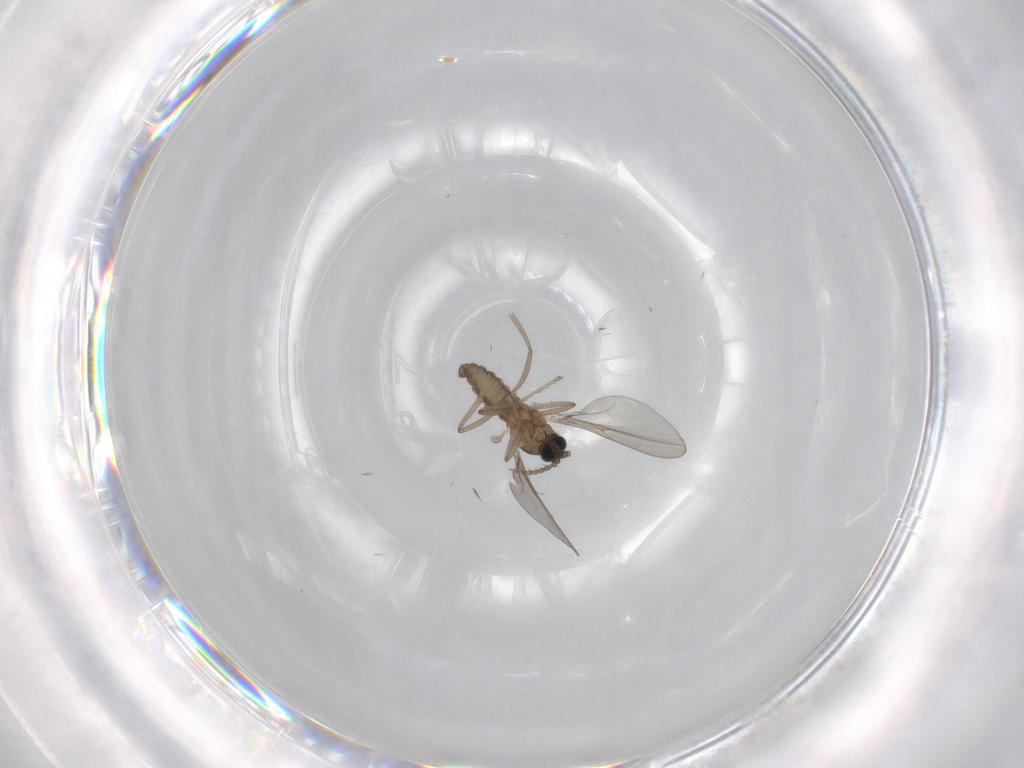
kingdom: Animalia
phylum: Arthropoda
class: Insecta
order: Diptera
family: Cecidomyiidae
